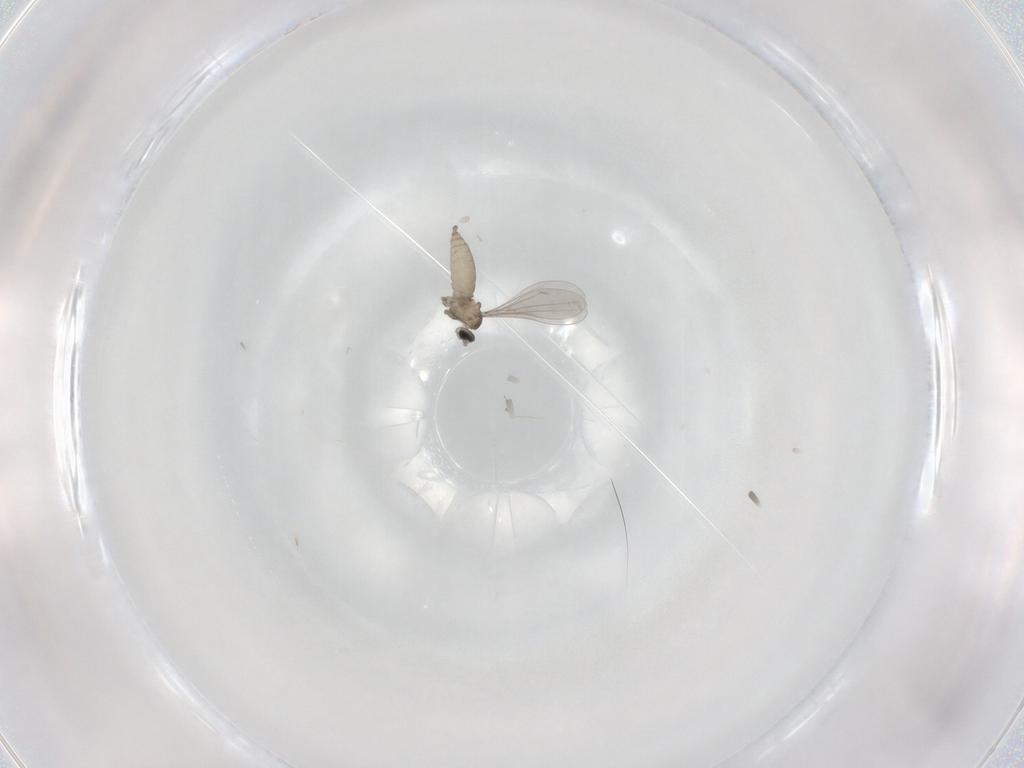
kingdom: Animalia
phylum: Arthropoda
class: Insecta
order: Diptera
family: Sciaridae
